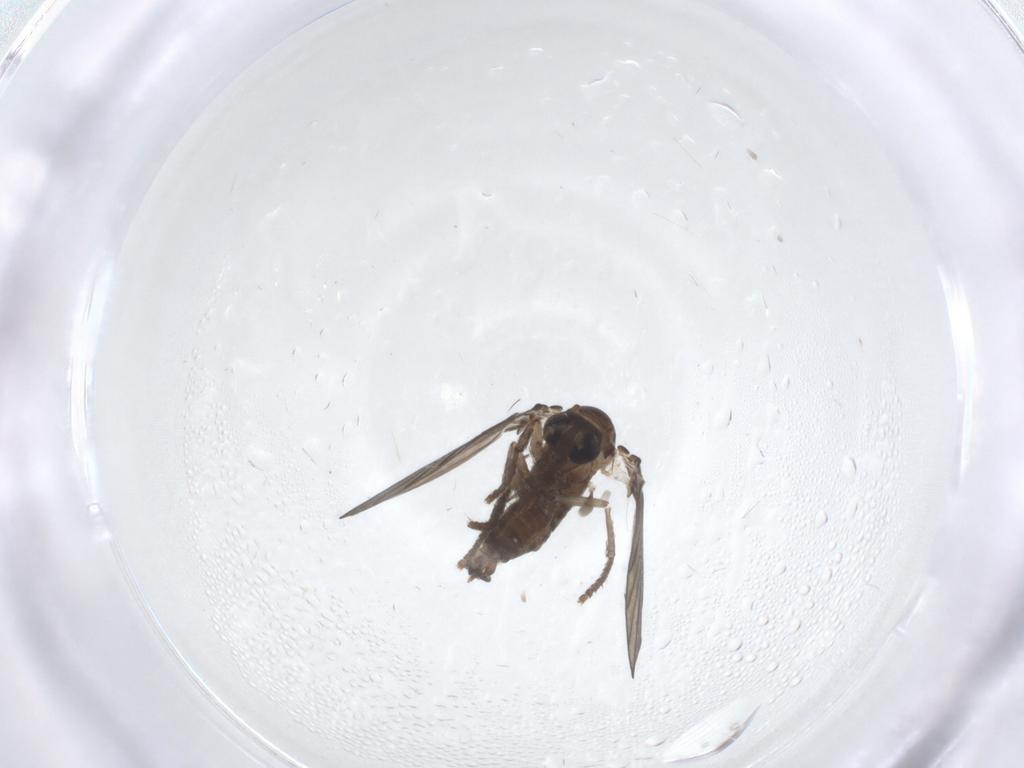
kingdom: Animalia
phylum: Arthropoda
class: Insecta
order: Diptera
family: Psychodidae
